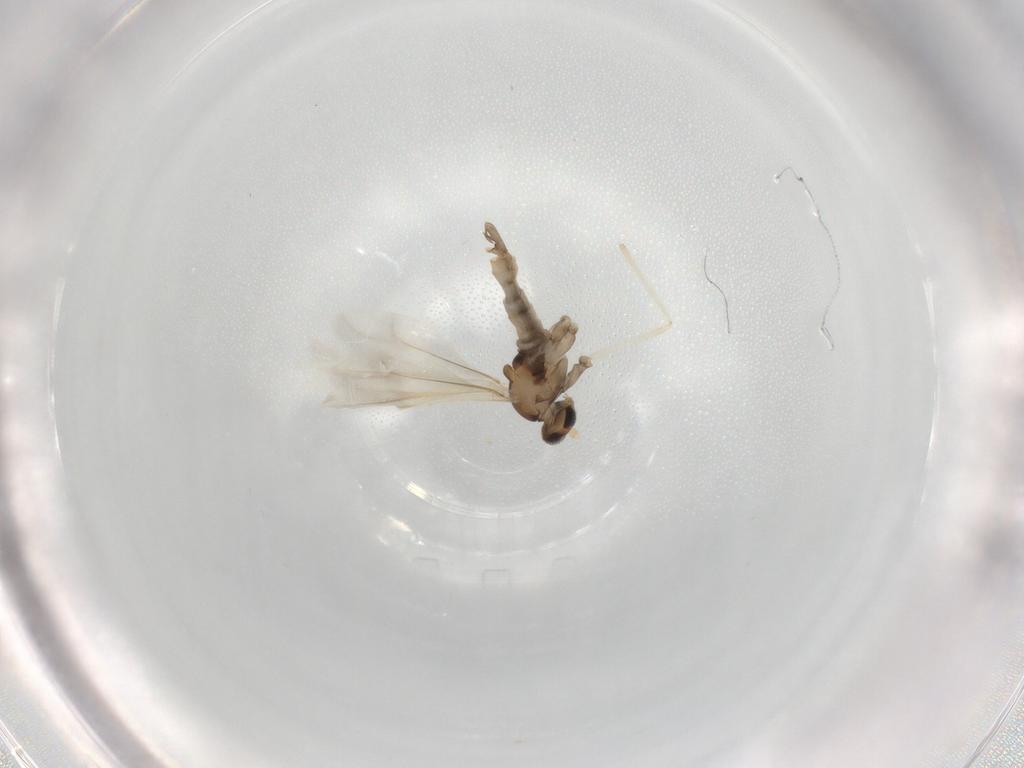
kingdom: Animalia
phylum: Arthropoda
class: Insecta
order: Diptera
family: Cecidomyiidae
